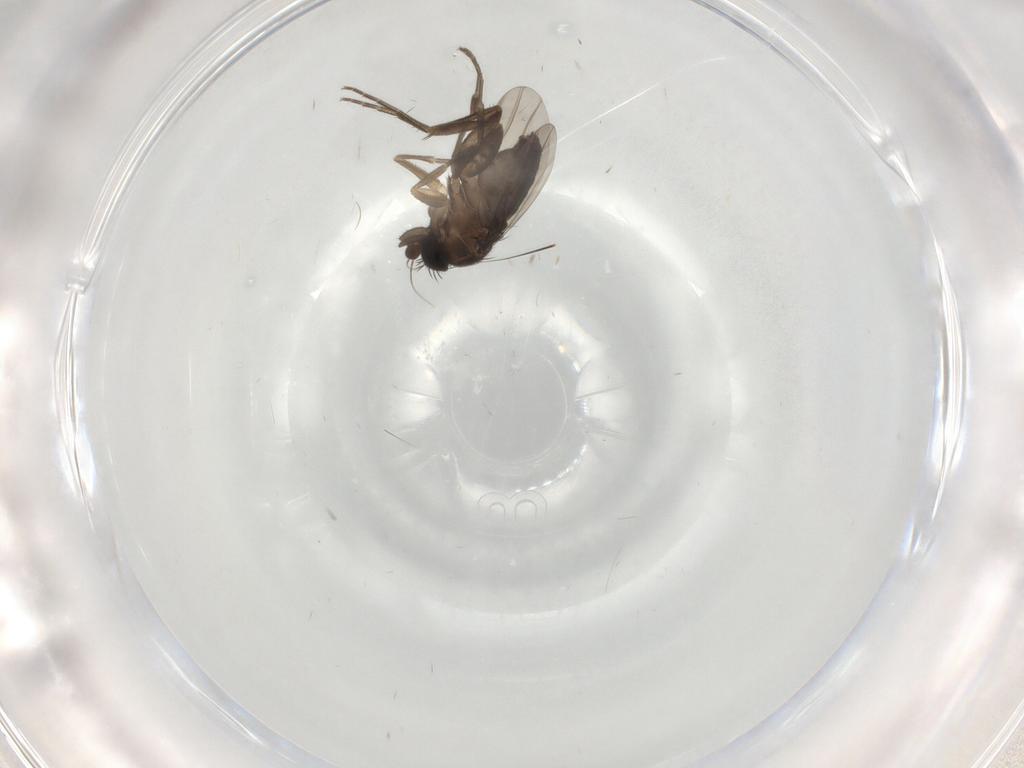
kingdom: Animalia
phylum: Arthropoda
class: Insecta
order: Diptera
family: Phoridae
